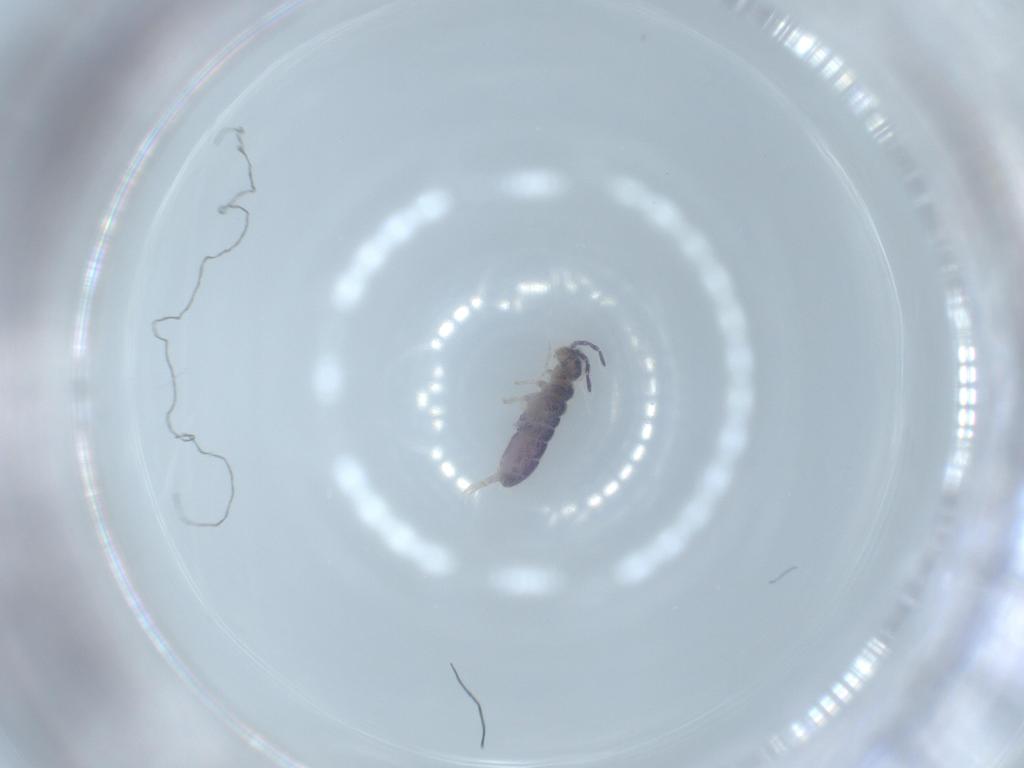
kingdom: Animalia
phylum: Arthropoda
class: Collembola
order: Entomobryomorpha
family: Isotomidae
